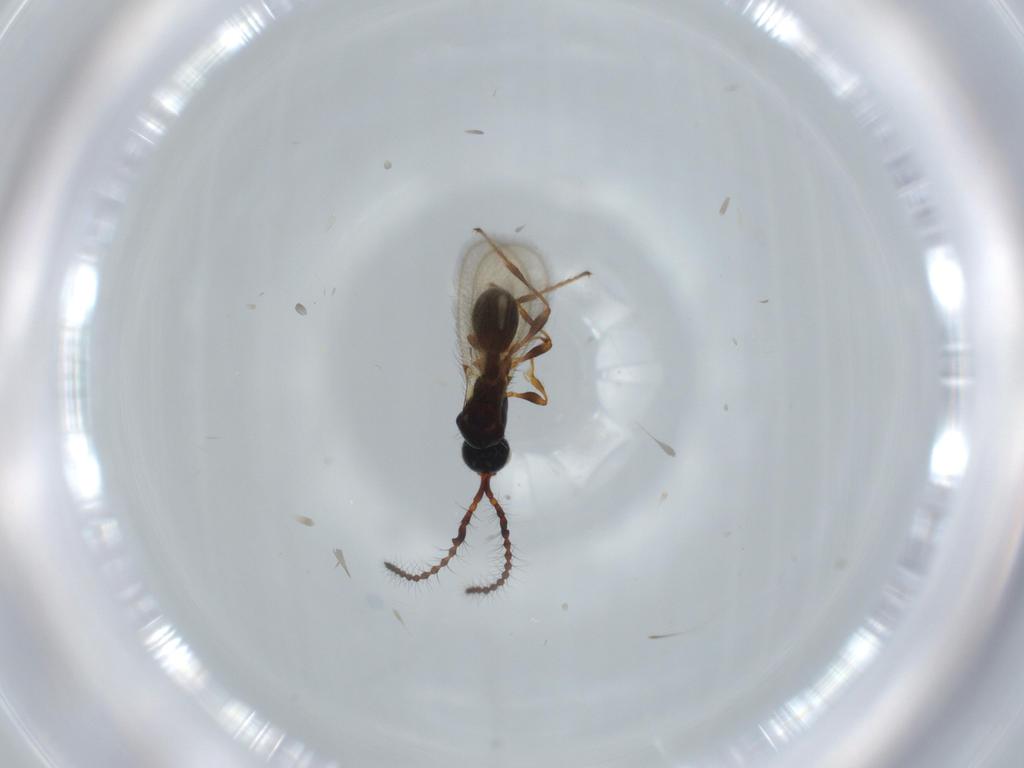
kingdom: Animalia
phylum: Arthropoda
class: Insecta
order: Hymenoptera
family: Diapriidae
